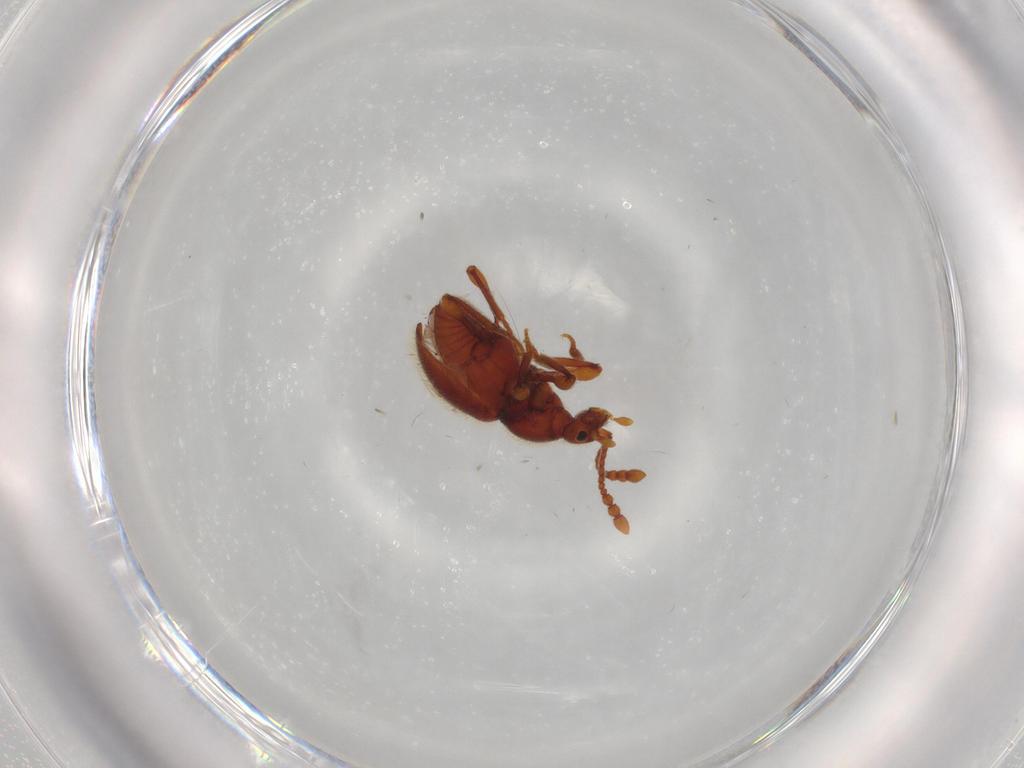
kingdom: Animalia
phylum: Arthropoda
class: Insecta
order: Coleoptera
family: Staphylinidae
